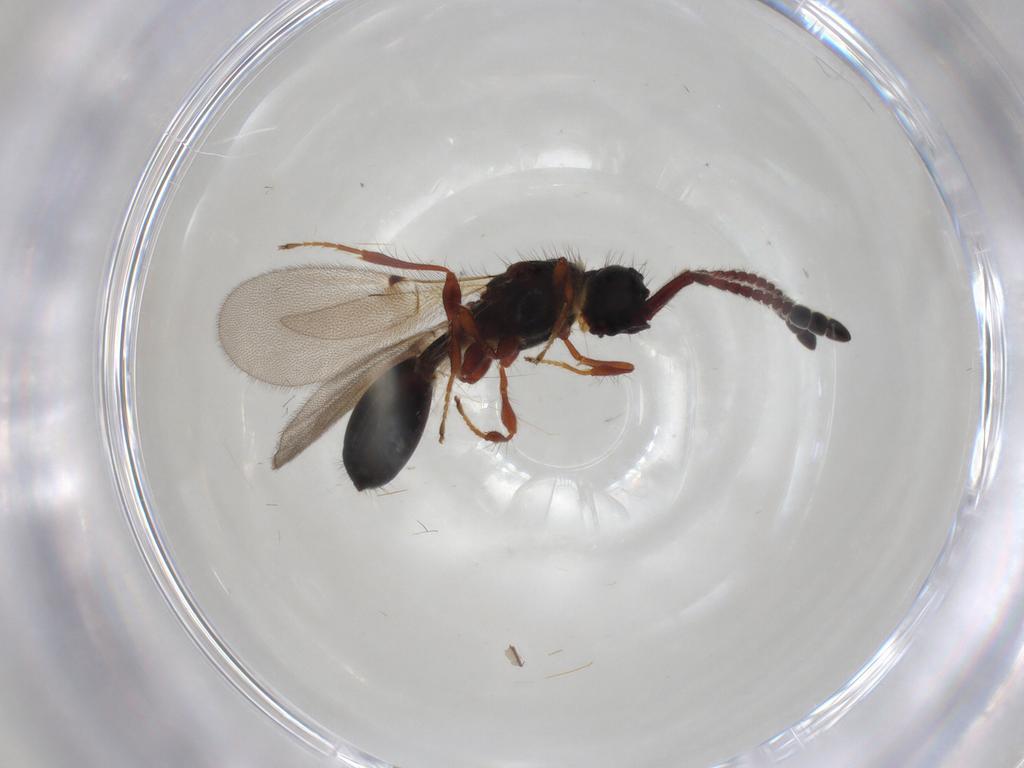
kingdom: Animalia
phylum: Arthropoda
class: Insecta
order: Hymenoptera
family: Diapriidae
